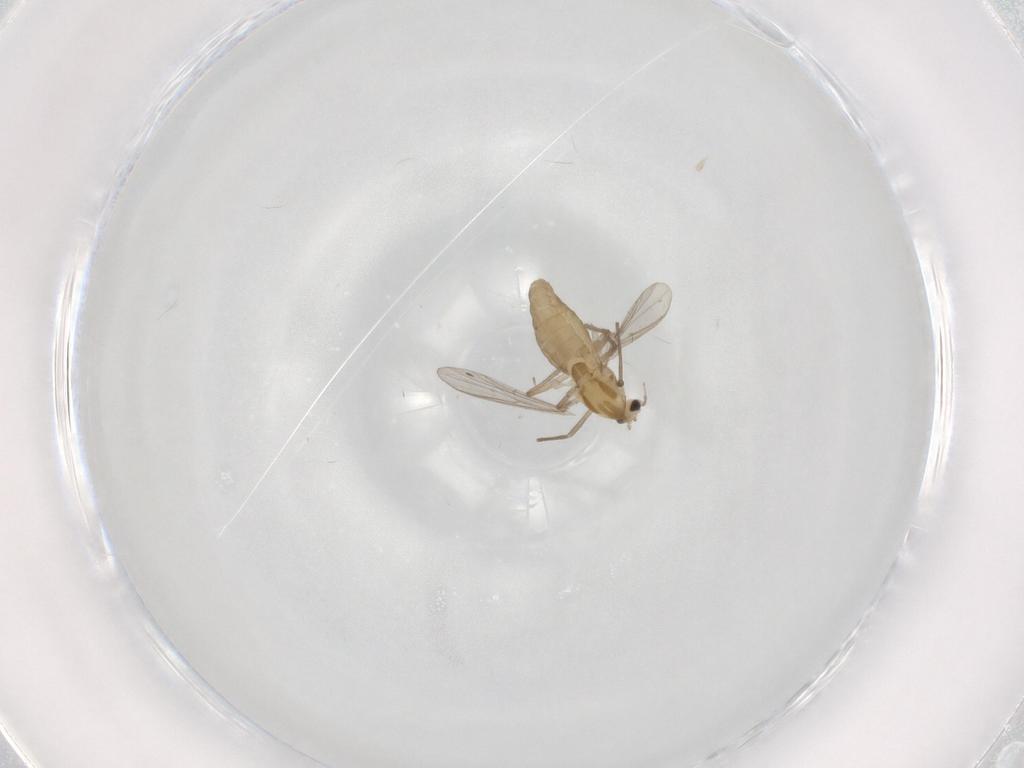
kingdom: Animalia
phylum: Arthropoda
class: Insecta
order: Diptera
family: Chironomidae
